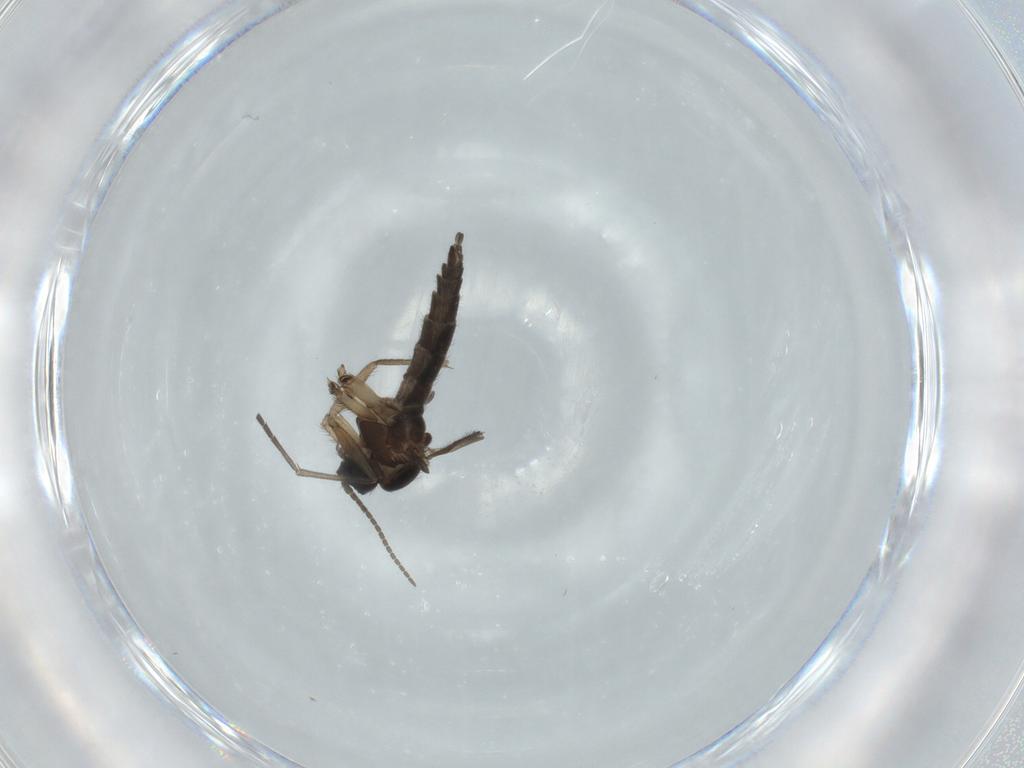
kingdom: Animalia
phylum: Arthropoda
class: Insecta
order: Diptera
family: Sciaridae
